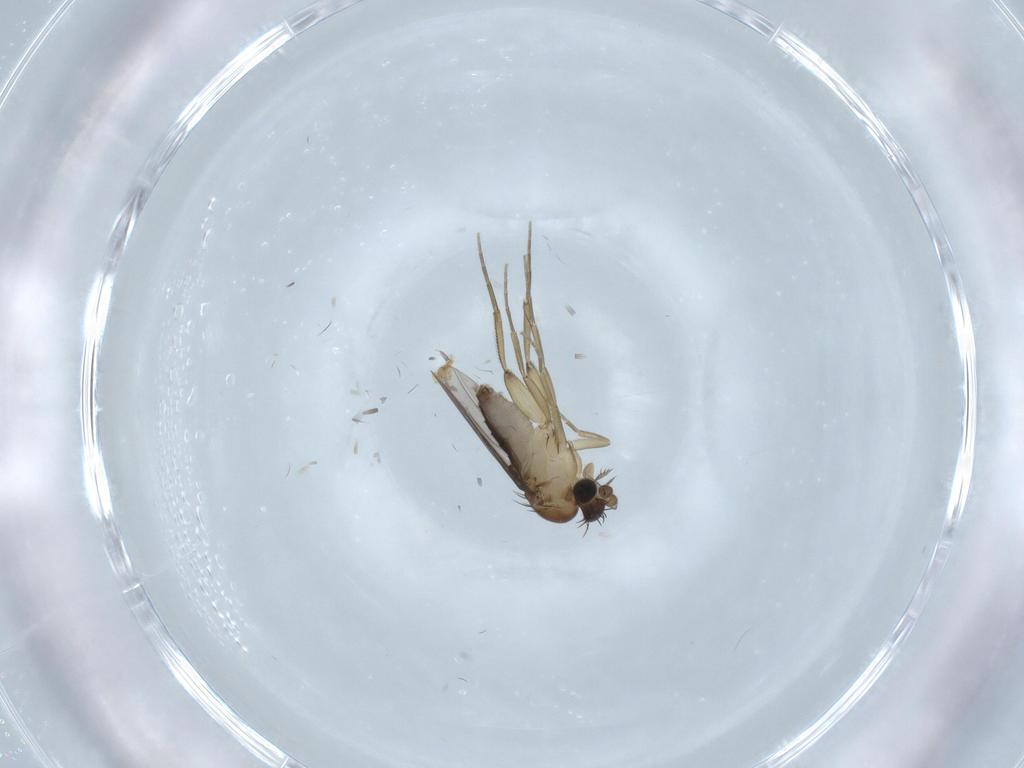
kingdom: Animalia
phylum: Arthropoda
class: Insecta
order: Diptera
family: Phoridae
